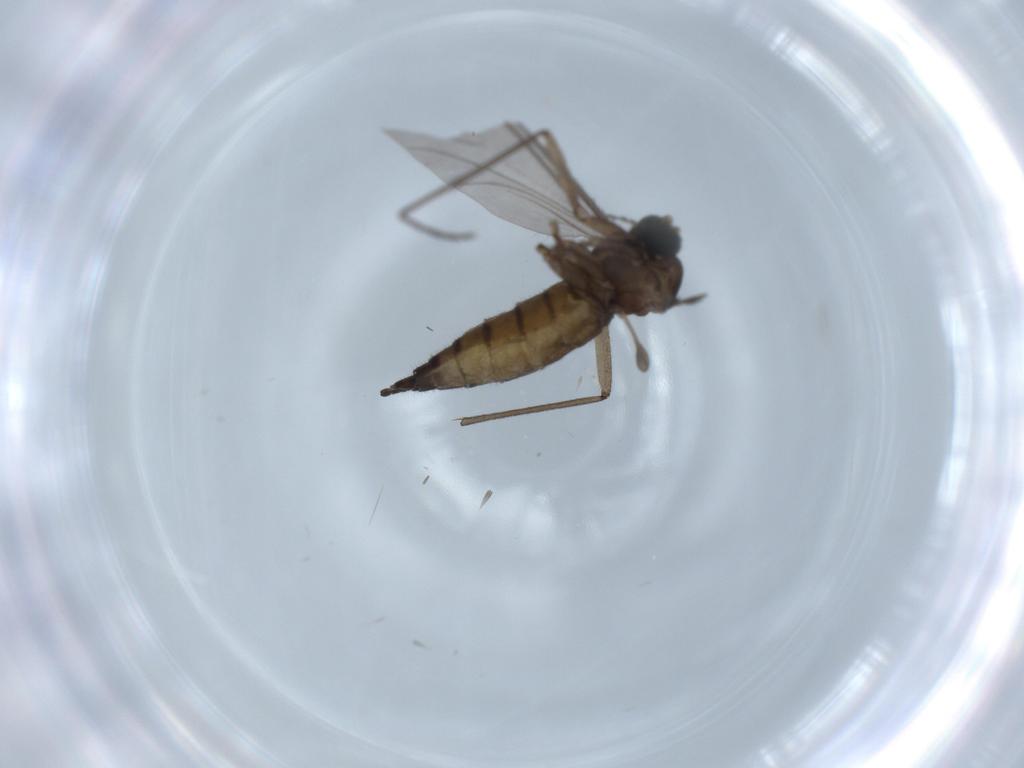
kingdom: Animalia
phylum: Arthropoda
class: Insecta
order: Diptera
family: Sciaridae
